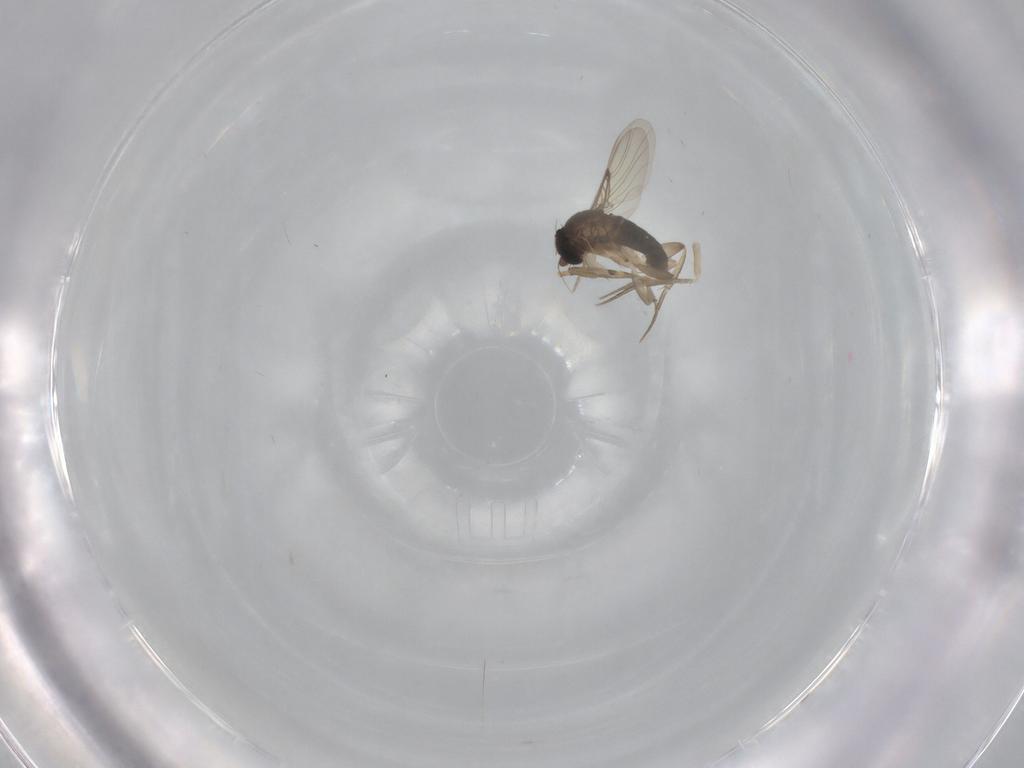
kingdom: Animalia
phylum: Arthropoda
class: Insecta
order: Diptera
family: Phoridae
